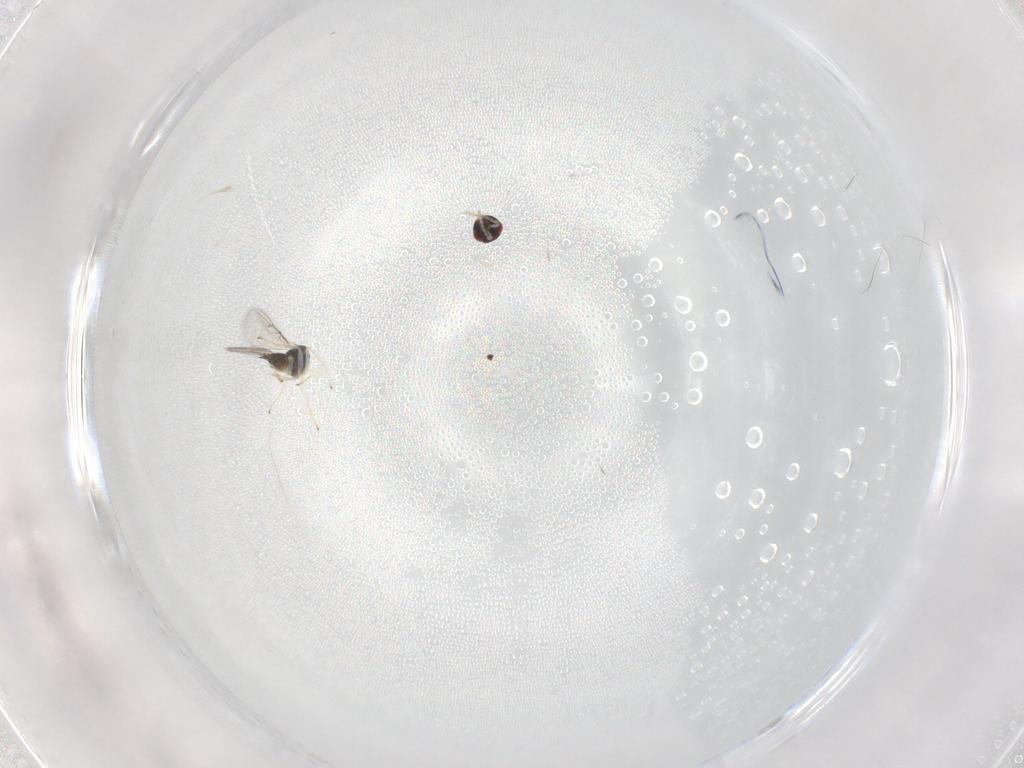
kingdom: Animalia
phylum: Arthropoda
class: Insecta
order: Hymenoptera
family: Eulophidae
